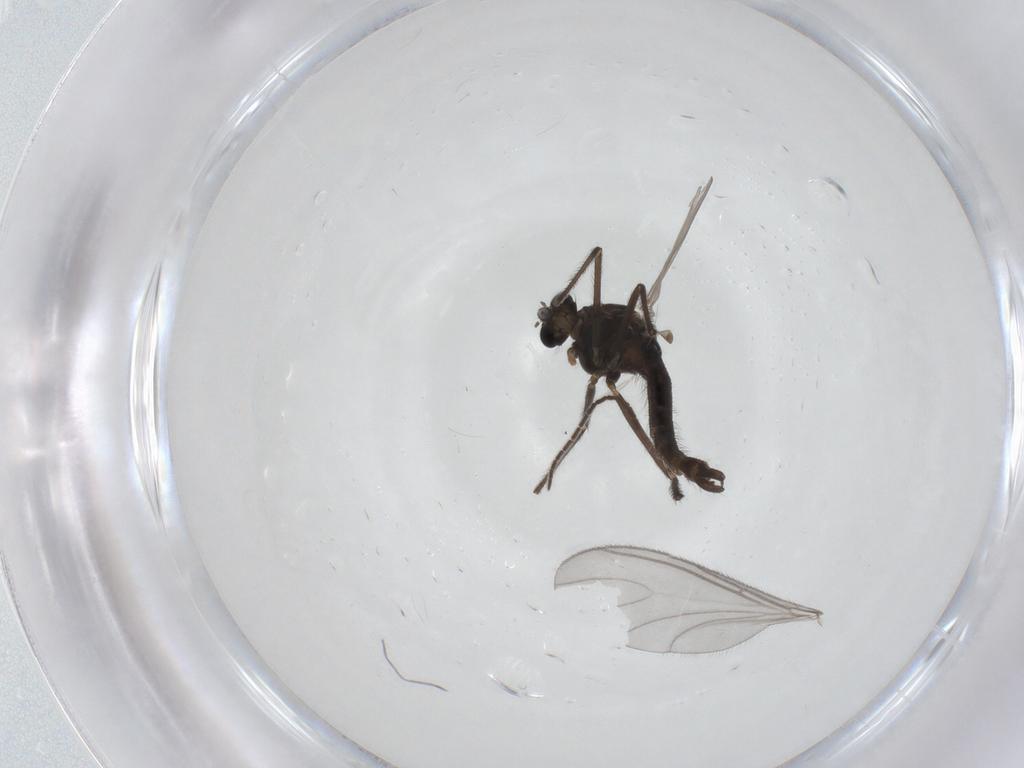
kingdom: Animalia
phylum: Arthropoda
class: Insecta
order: Diptera
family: Chironomidae
